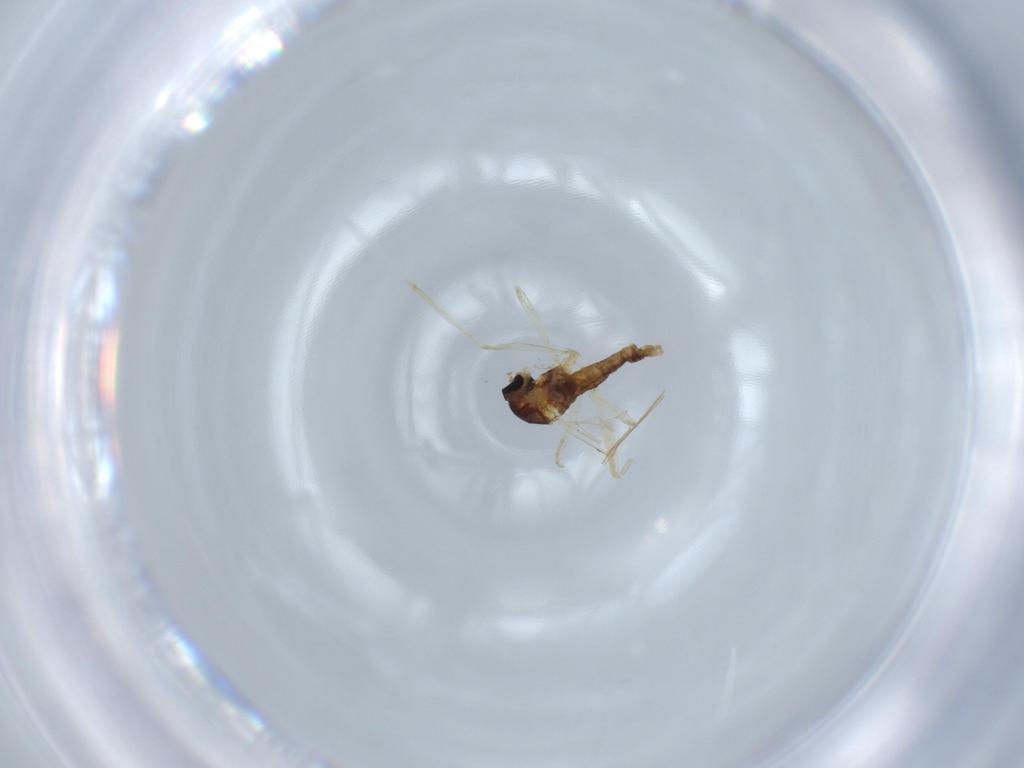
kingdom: Animalia
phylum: Arthropoda
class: Insecta
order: Diptera
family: Cecidomyiidae
